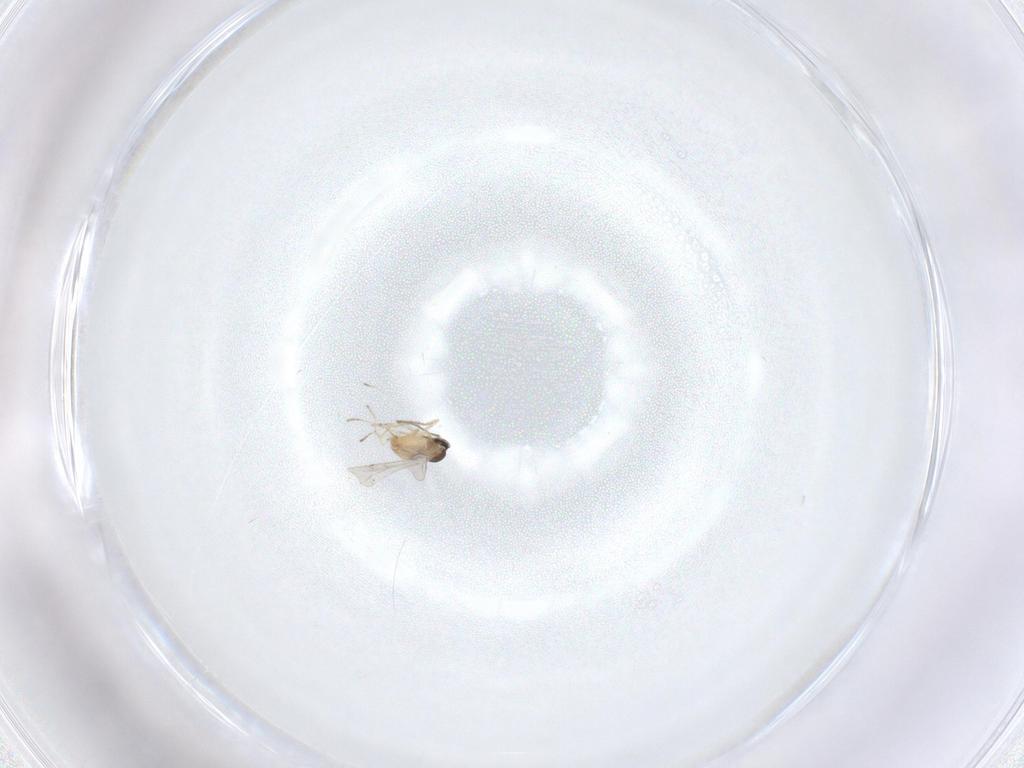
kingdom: Animalia
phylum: Arthropoda
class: Insecta
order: Diptera
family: Cecidomyiidae
